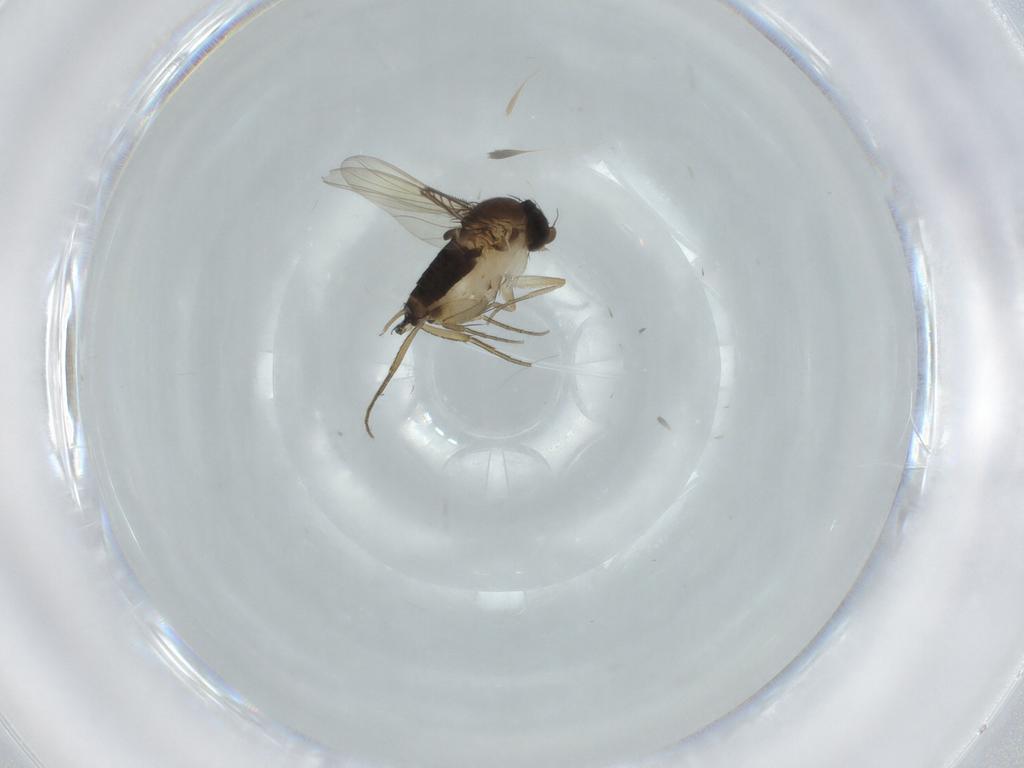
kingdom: Animalia
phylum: Arthropoda
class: Insecta
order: Diptera
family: Phoridae
